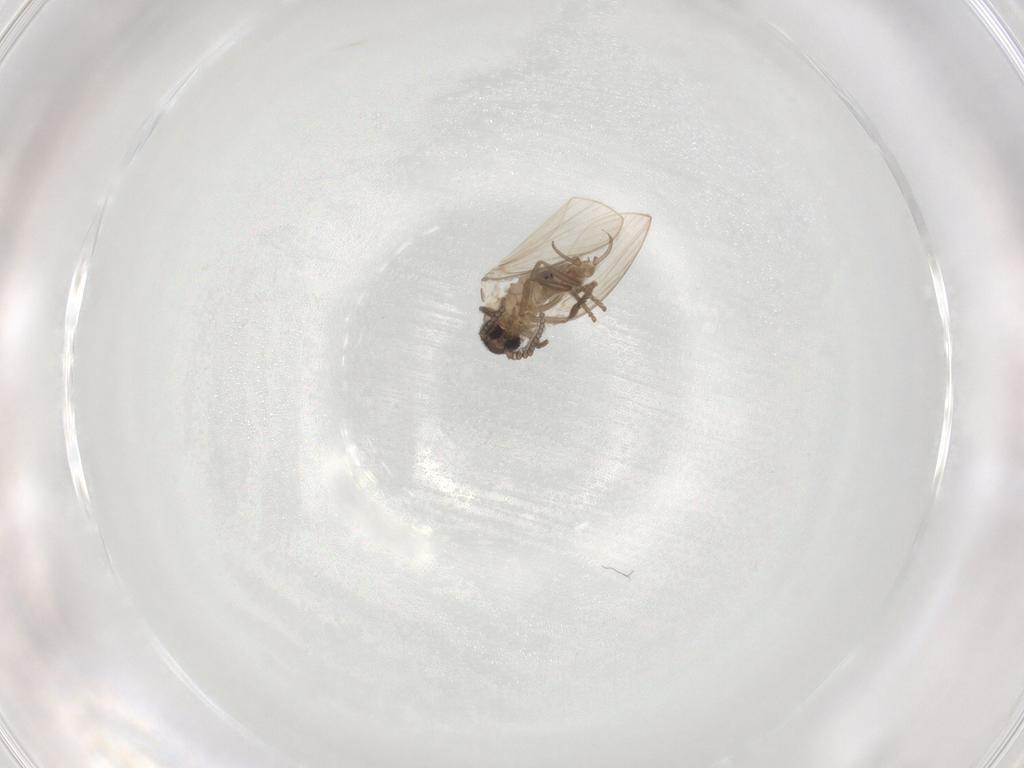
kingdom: Animalia
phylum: Arthropoda
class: Insecta
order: Diptera
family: Psychodidae
